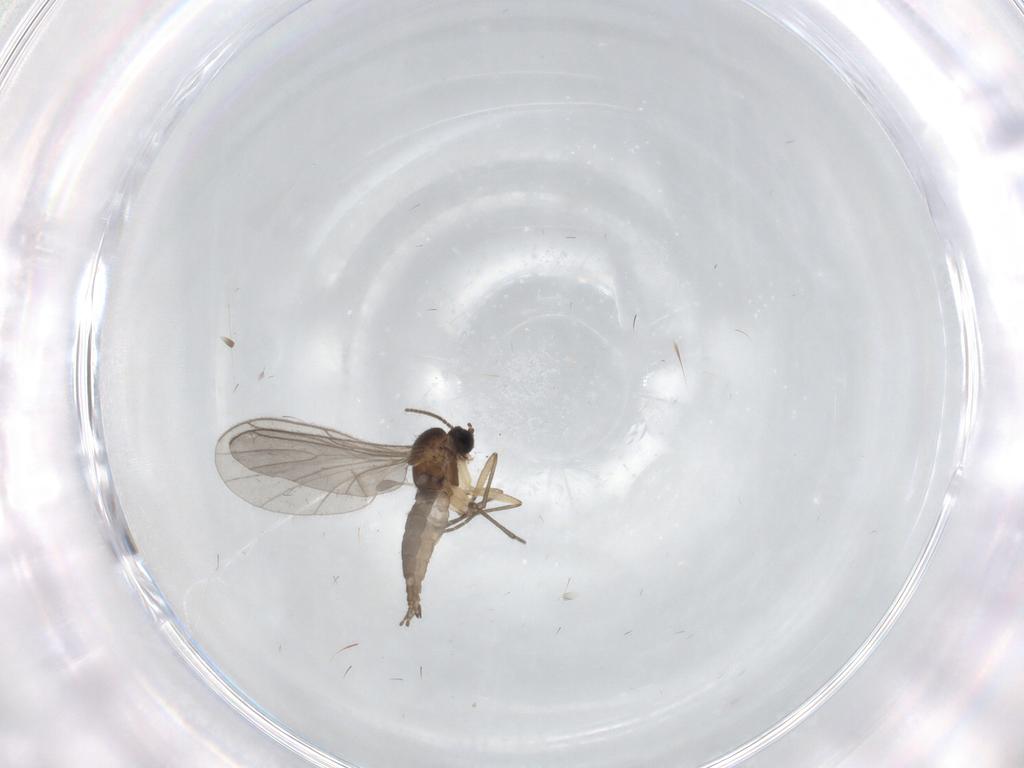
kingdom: Animalia
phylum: Arthropoda
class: Insecta
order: Diptera
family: Sciaridae
